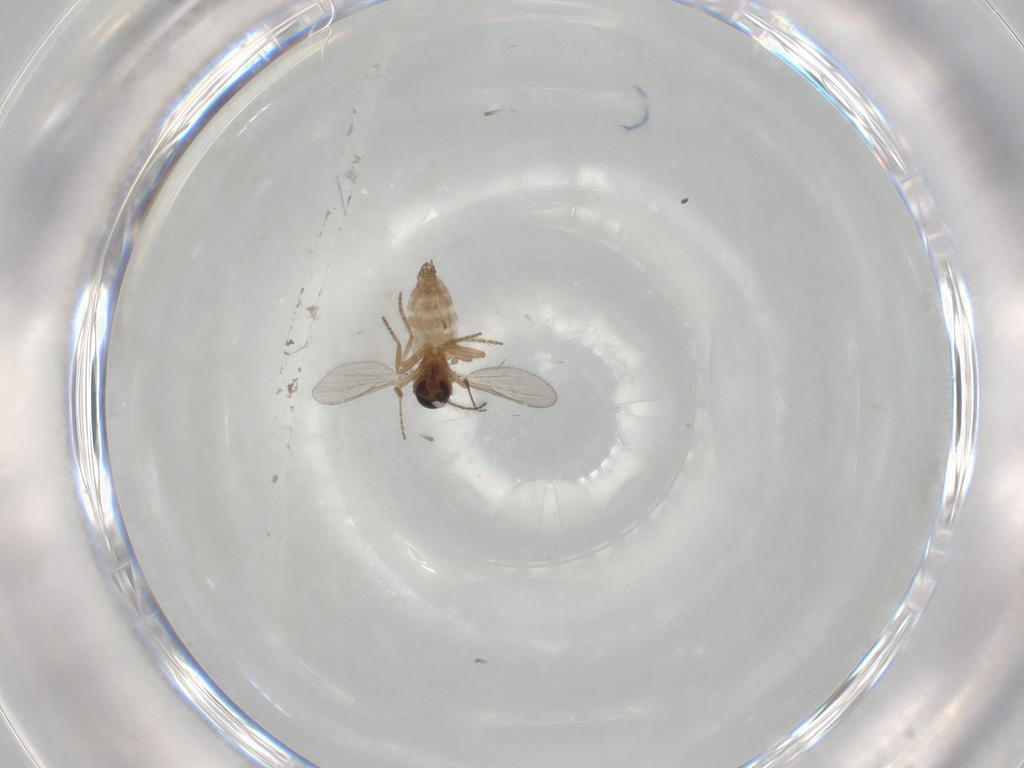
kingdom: Animalia
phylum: Arthropoda
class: Insecta
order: Diptera
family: Ceratopogonidae
